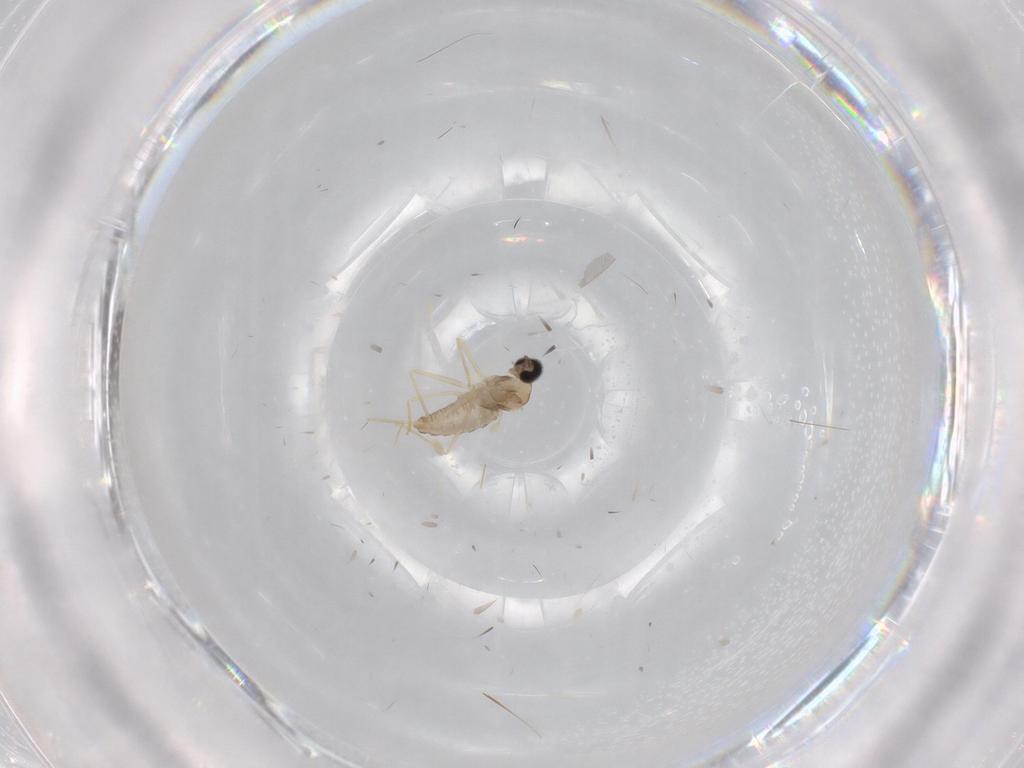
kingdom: Animalia
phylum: Arthropoda
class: Insecta
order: Diptera
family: Cecidomyiidae
